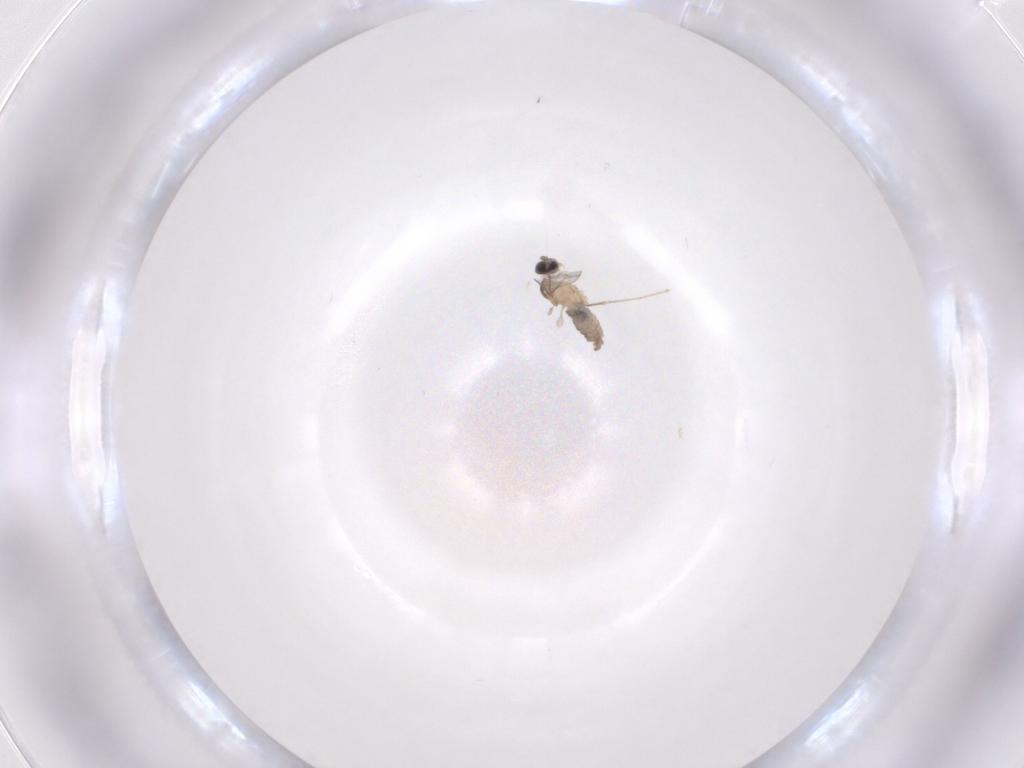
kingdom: Animalia
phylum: Arthropoda
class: Insecta
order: Diptera
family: Cecidomyiidae
